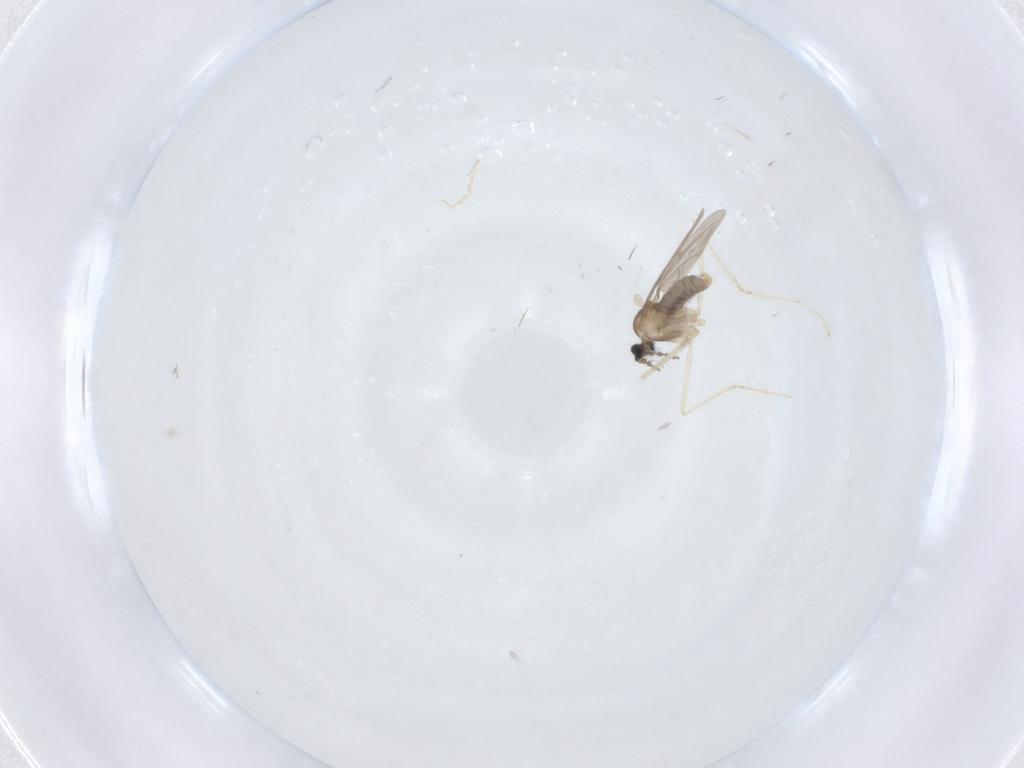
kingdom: Animalia
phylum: Arthropoda
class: Insecta
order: Diptera
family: Cecidomyiidae
